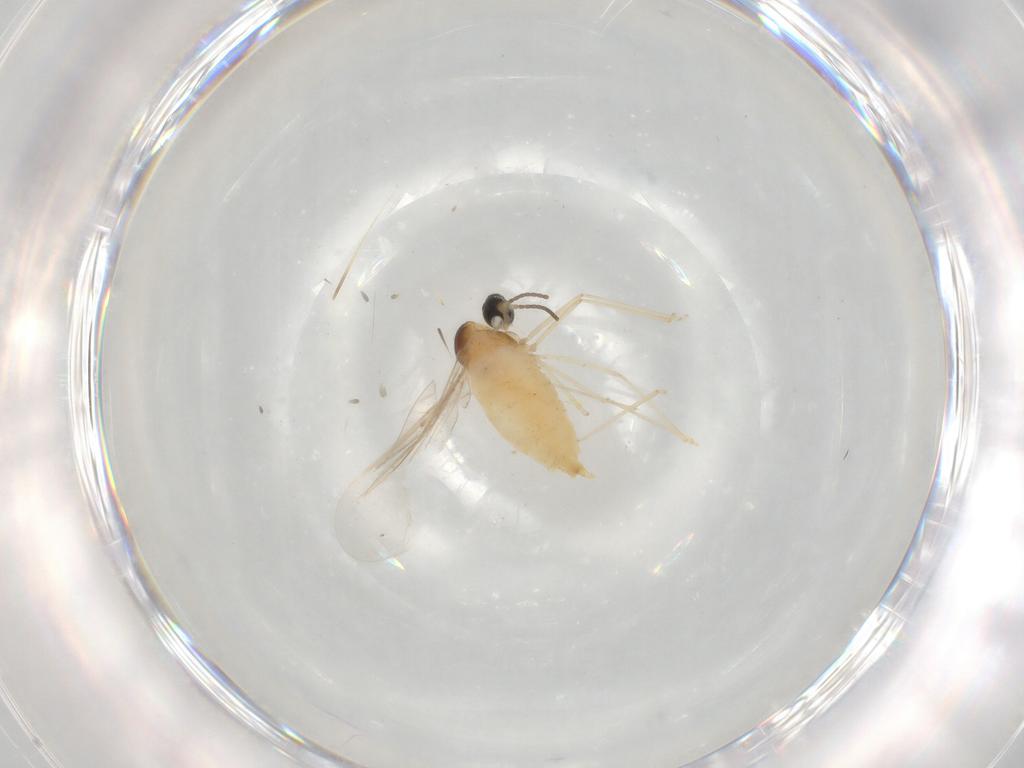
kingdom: Animalia
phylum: Arthropoda
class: Insecta
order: Diptera
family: Cecidomyiidae
